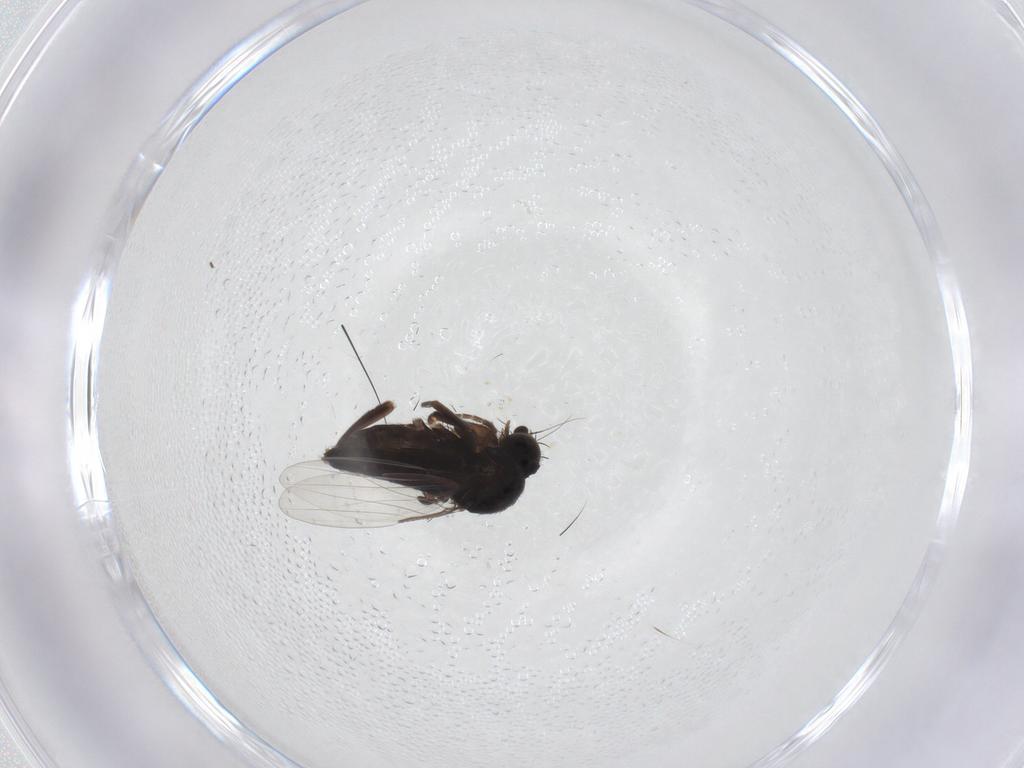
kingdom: Animalia
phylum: Arthropoda
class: Insecta
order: Diptera
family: Phoridae
